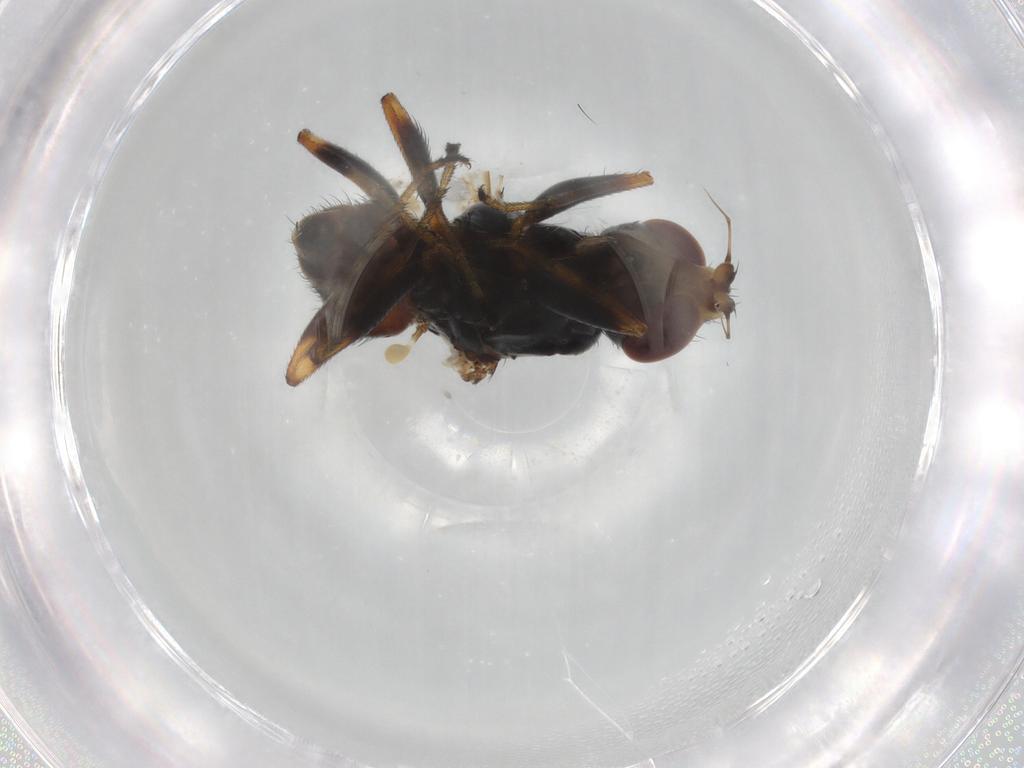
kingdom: Animalia
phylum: Arthropoda
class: Insecta
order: Diptera
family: Chloropidae
